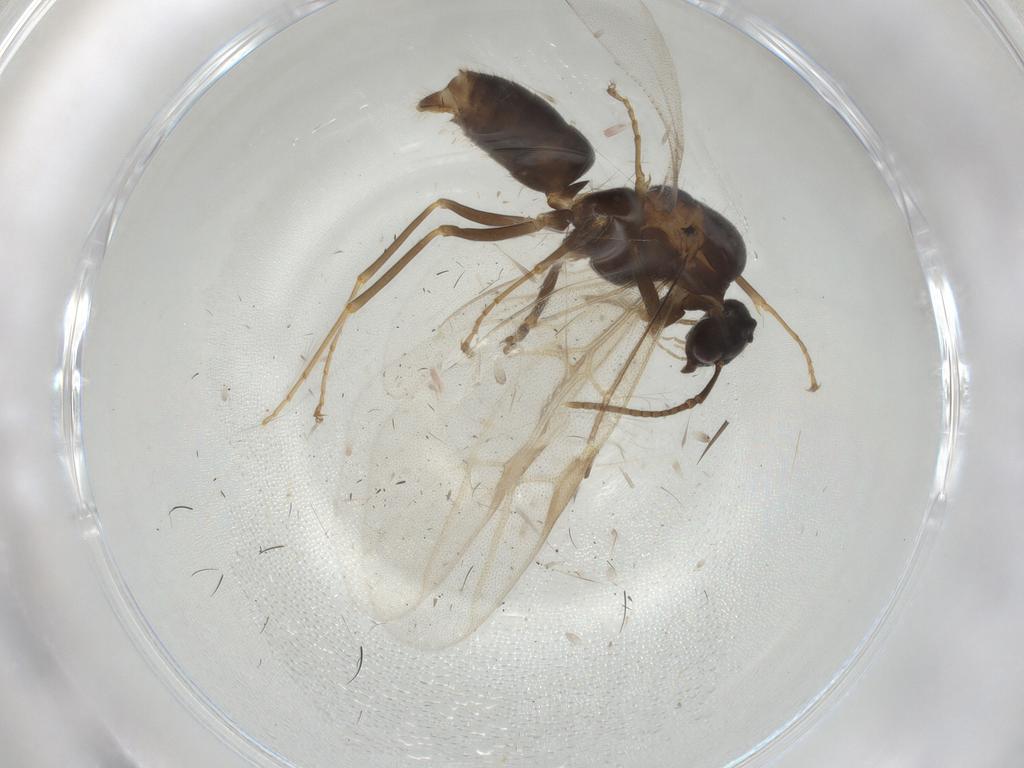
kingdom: Animalia
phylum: Arthropoda
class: Insecta
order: Hymenoptera
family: Formicidae
